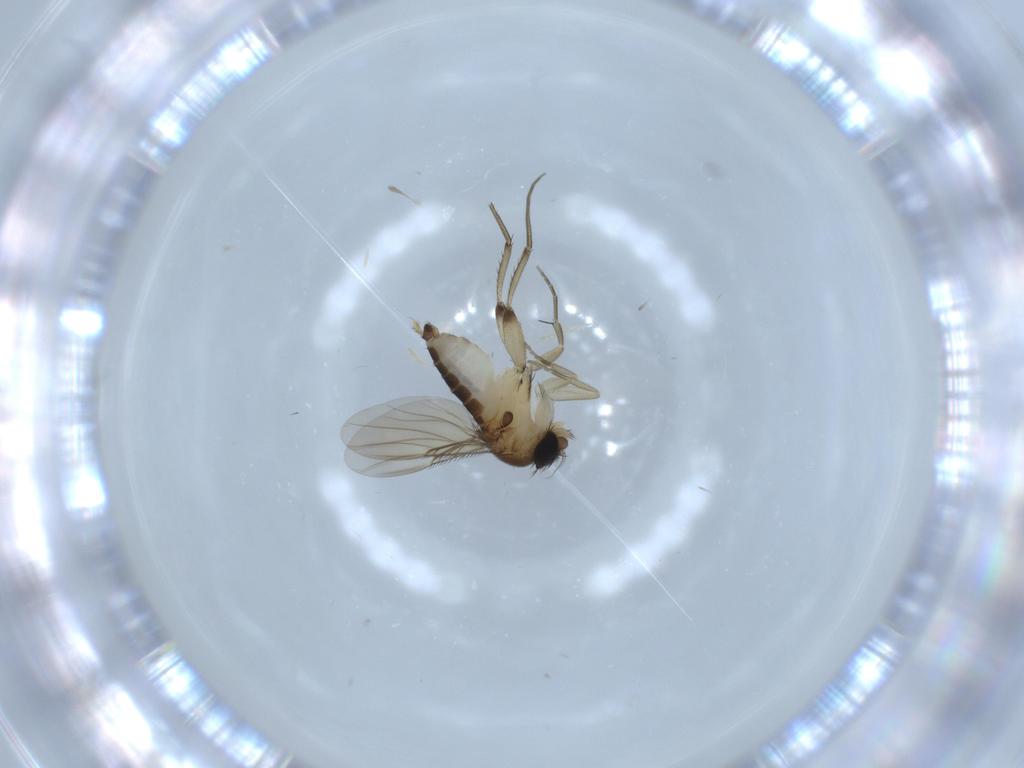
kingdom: Animalia
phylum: Arthropoda
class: Insecta
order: Diptera
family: Phoridae
